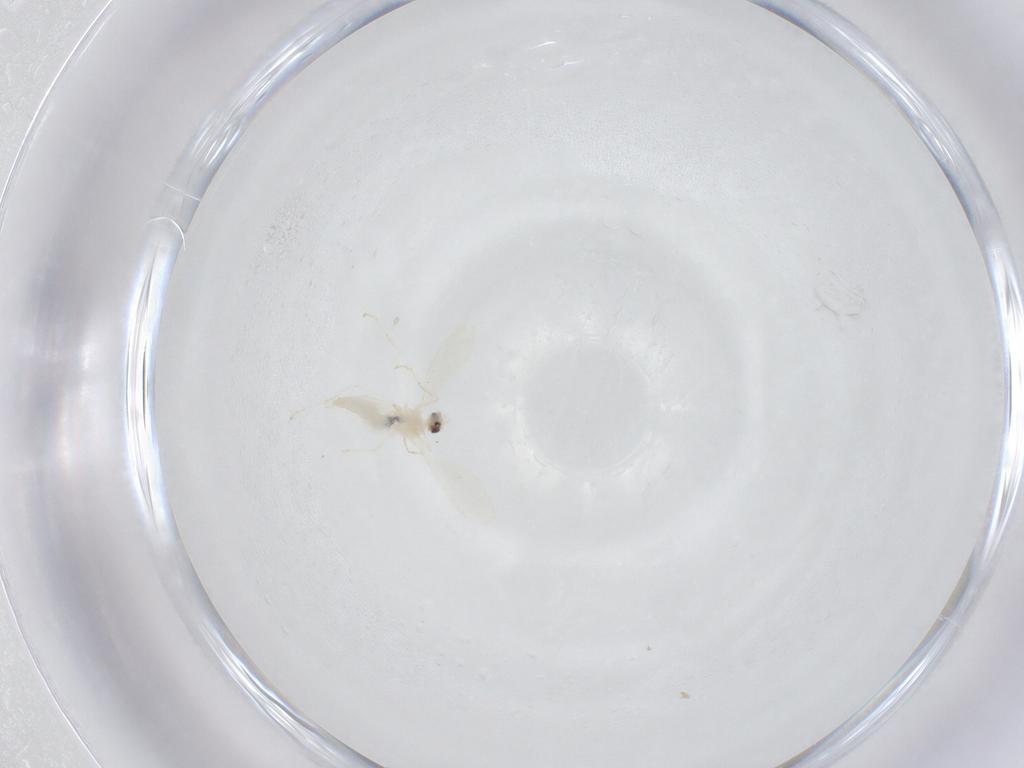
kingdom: Animalia
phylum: Arthropoda
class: Insecta
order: Diptera
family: Cecidomyiidae
